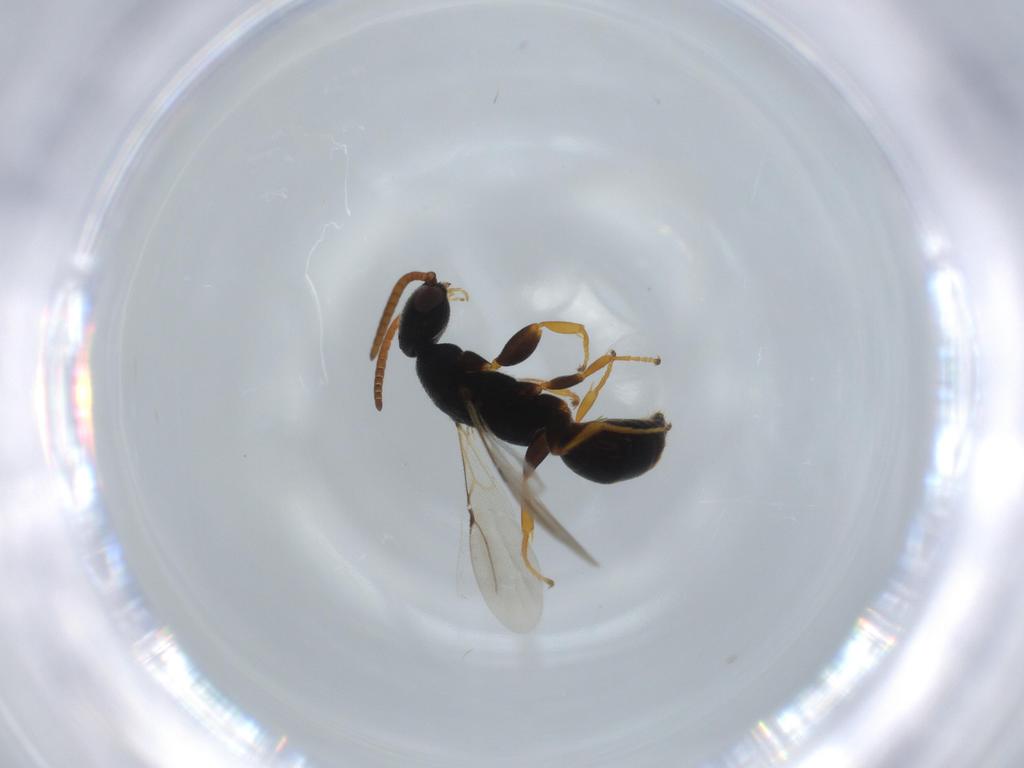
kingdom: Animalia
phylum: Arthropoda
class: Insecta
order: Hymenoptera
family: Bethylidae
